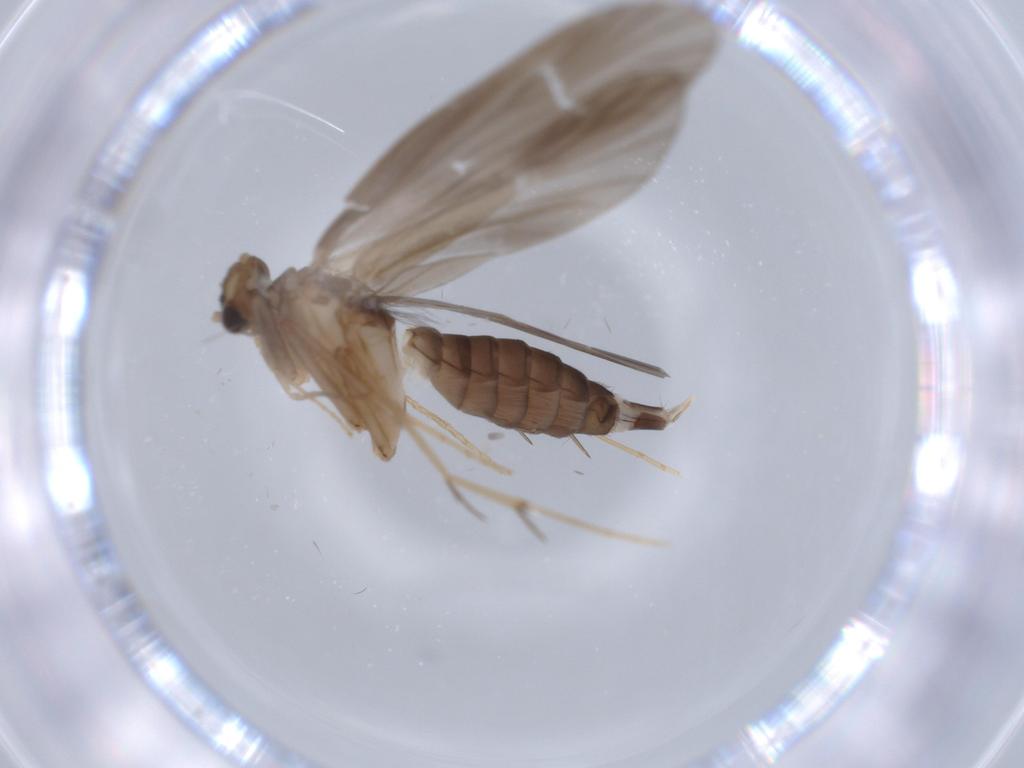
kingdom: Animalia
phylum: Arthropoda
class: Insecta
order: Trichoptera
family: Philopotamidae
